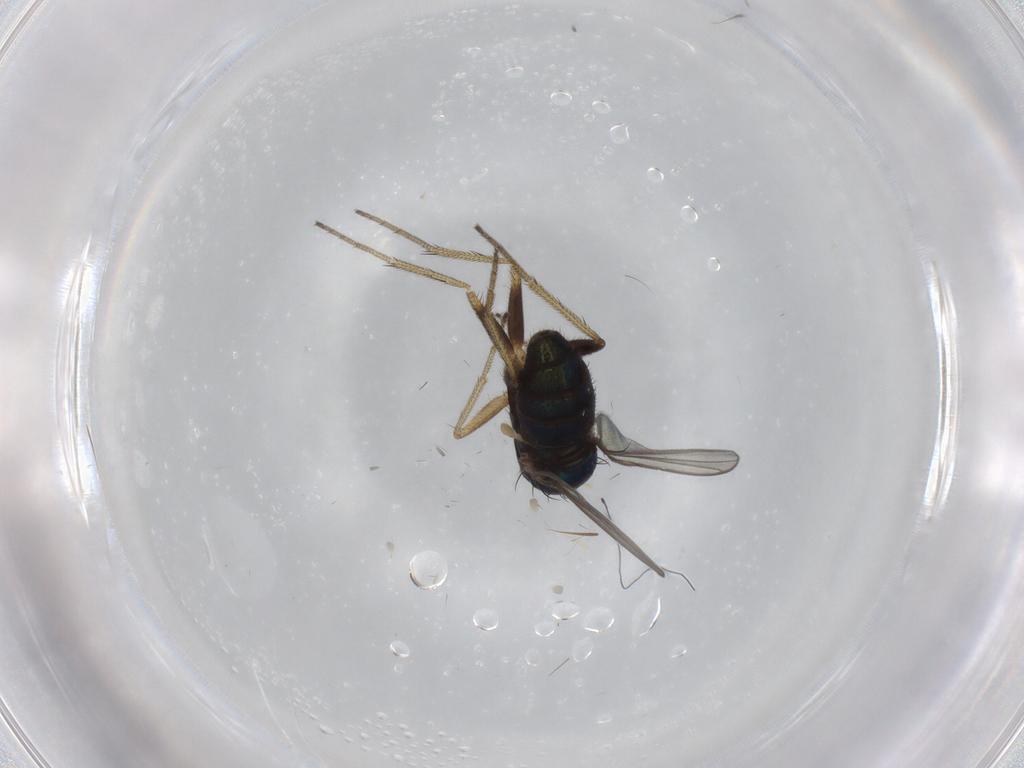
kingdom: Animalia
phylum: Arthropoda
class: Insecta
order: Diptera
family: Dolichopodidae
